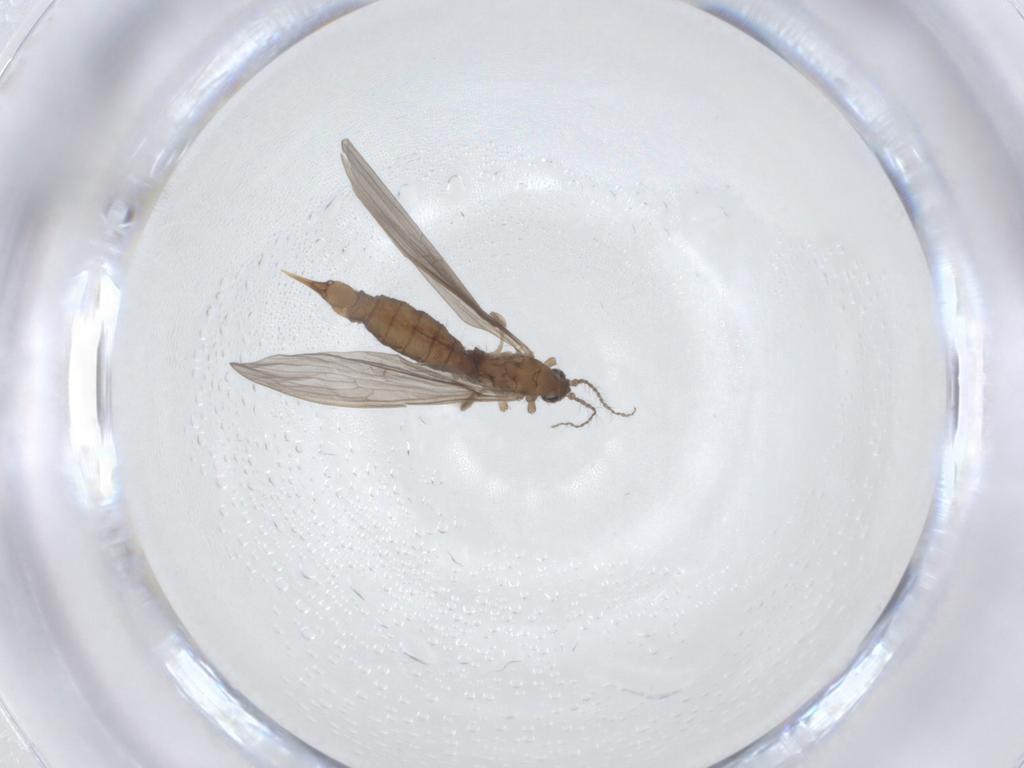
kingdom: Animalia
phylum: Arthropoda
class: Insecta
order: Diptera
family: Limoniidae
